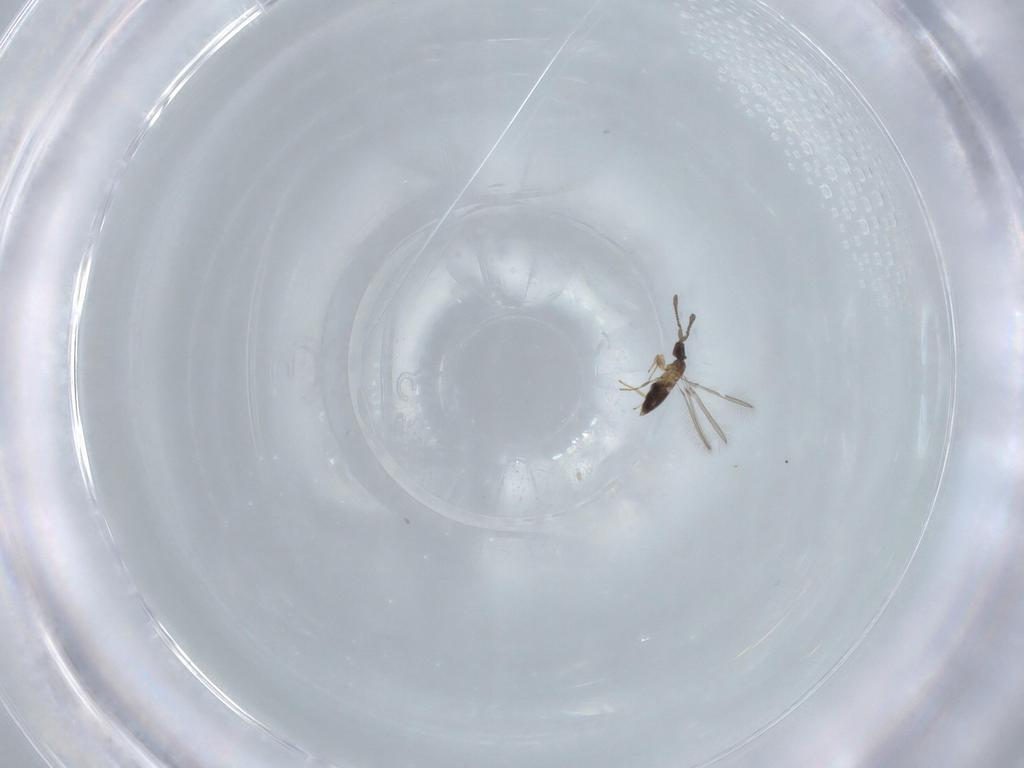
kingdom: Animalia
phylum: Arthropoda
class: Insecta
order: Hymenoptera
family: Mymaridae
